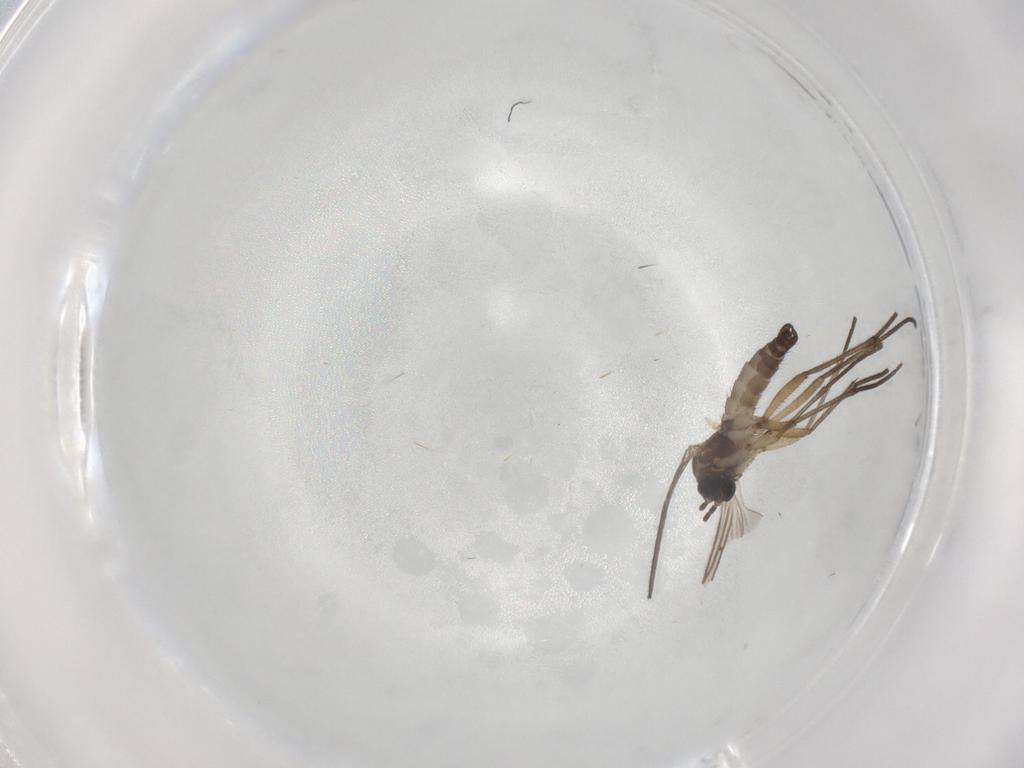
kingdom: Animalia
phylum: Arthropoda
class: Insecta
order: Diptera
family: Sciaridae
